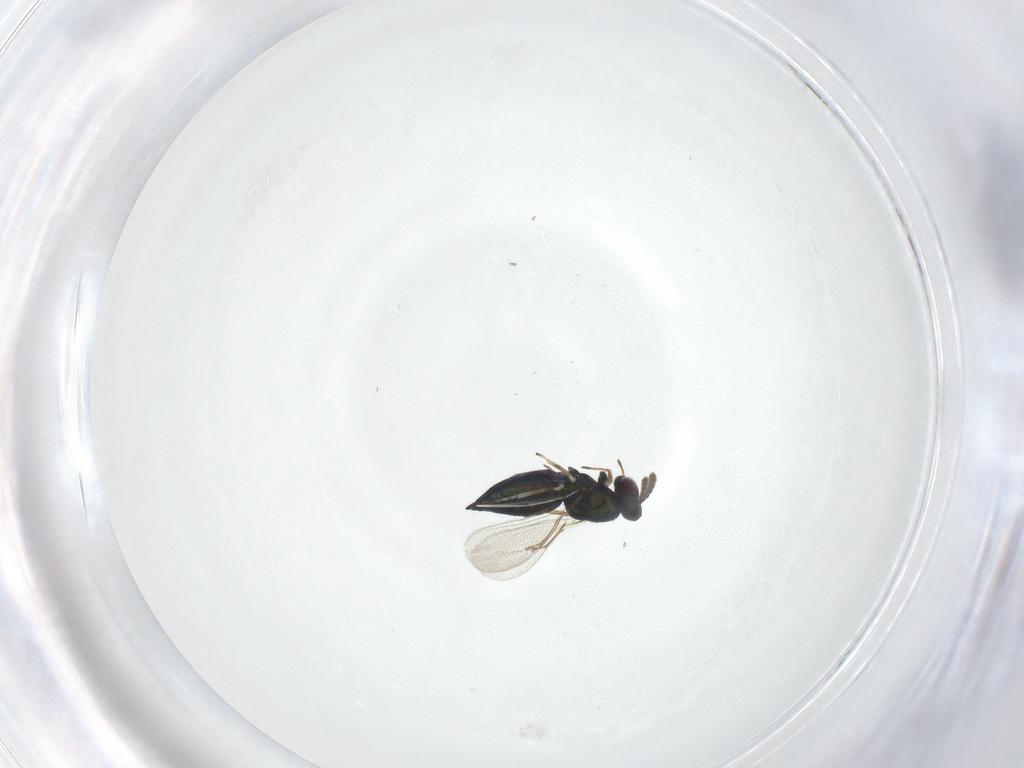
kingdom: Animalia
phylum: Arthropoda
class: Insecta
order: Hymenoptera
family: Eulophidae
